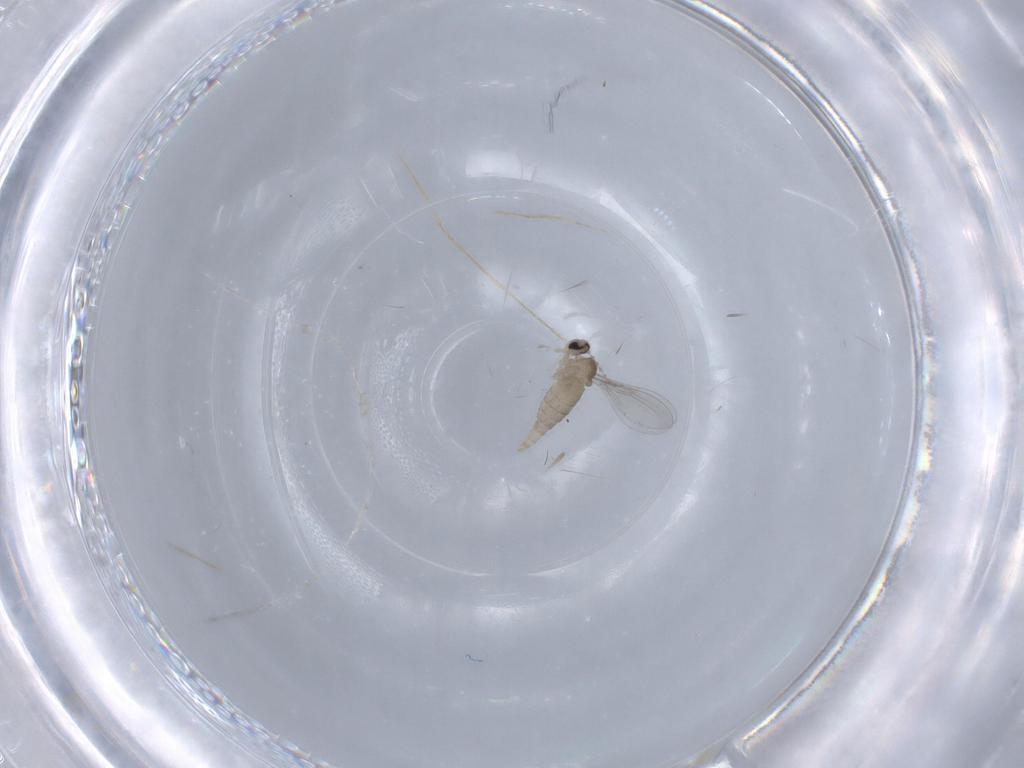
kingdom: Animalia
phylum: Arthropoda
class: Insecta
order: Diptera
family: Cecidomyiidae
